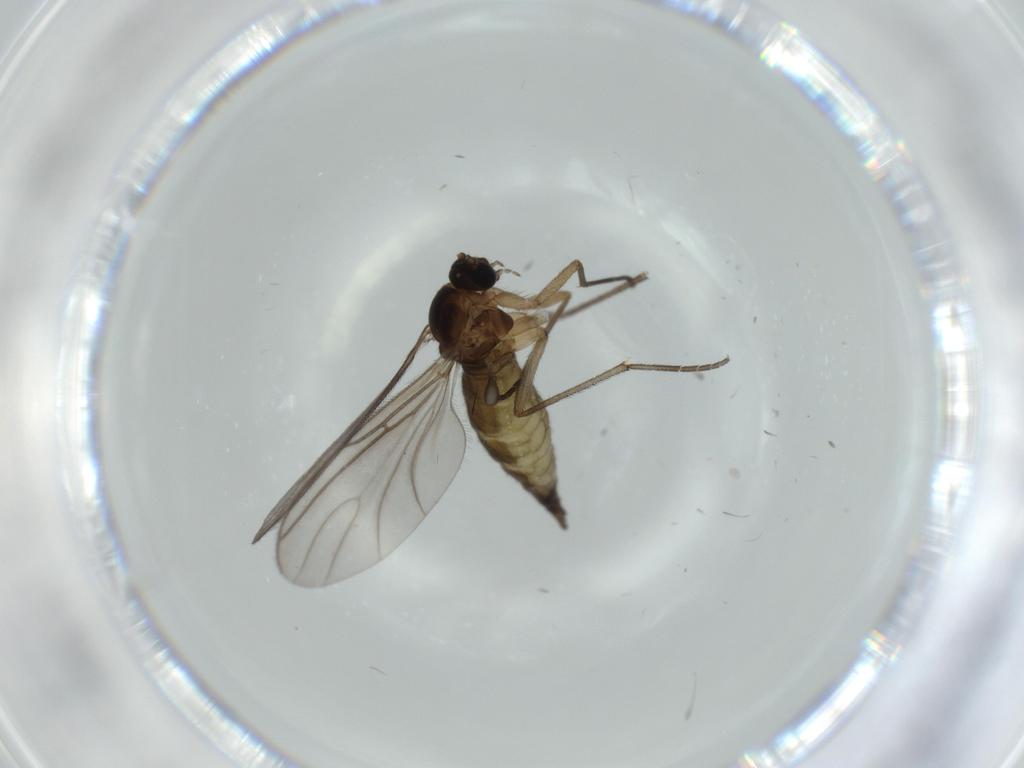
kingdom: Animalia
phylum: Arthropoda
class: Insecta
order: Diptera
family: Sciaridae
